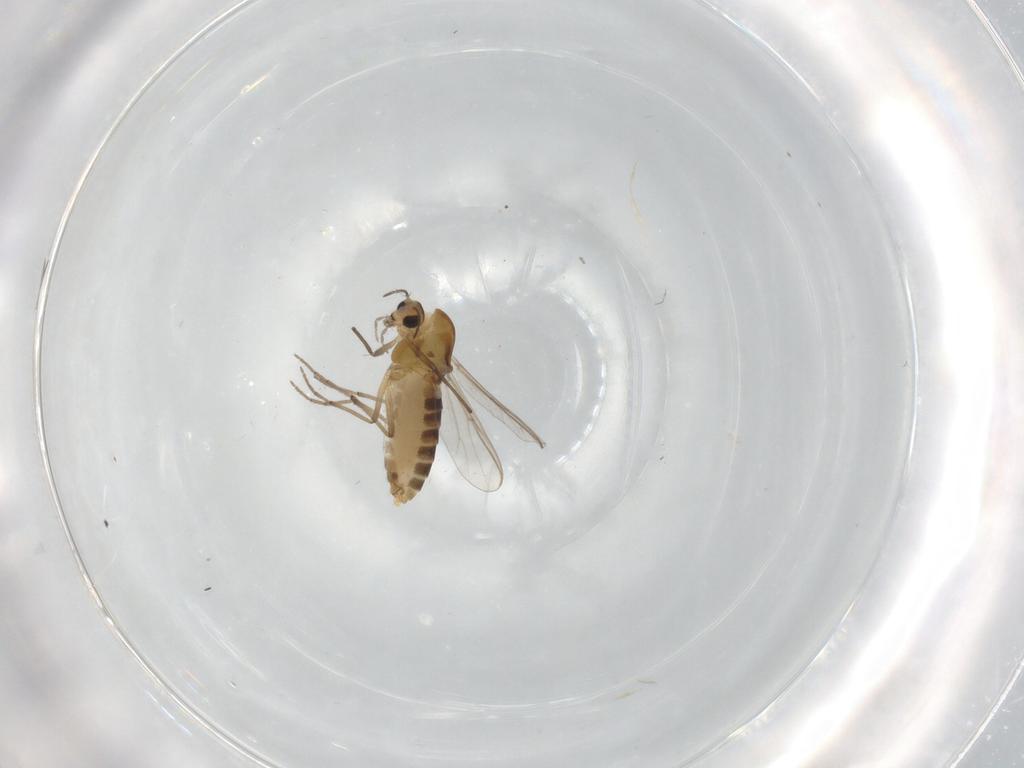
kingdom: Animalia
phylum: Arthropoda
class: Insecta
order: Diptera
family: Chironomidae
